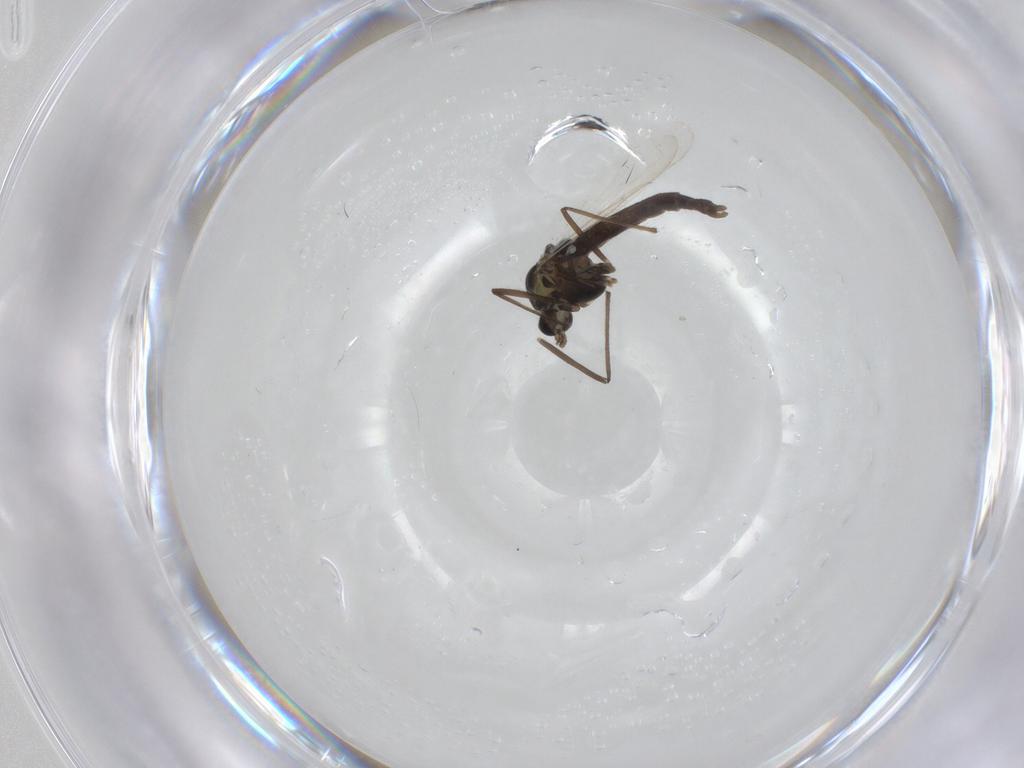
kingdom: Animalia
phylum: Arthropoda
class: Insecta
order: Diptera
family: Chironomidae
